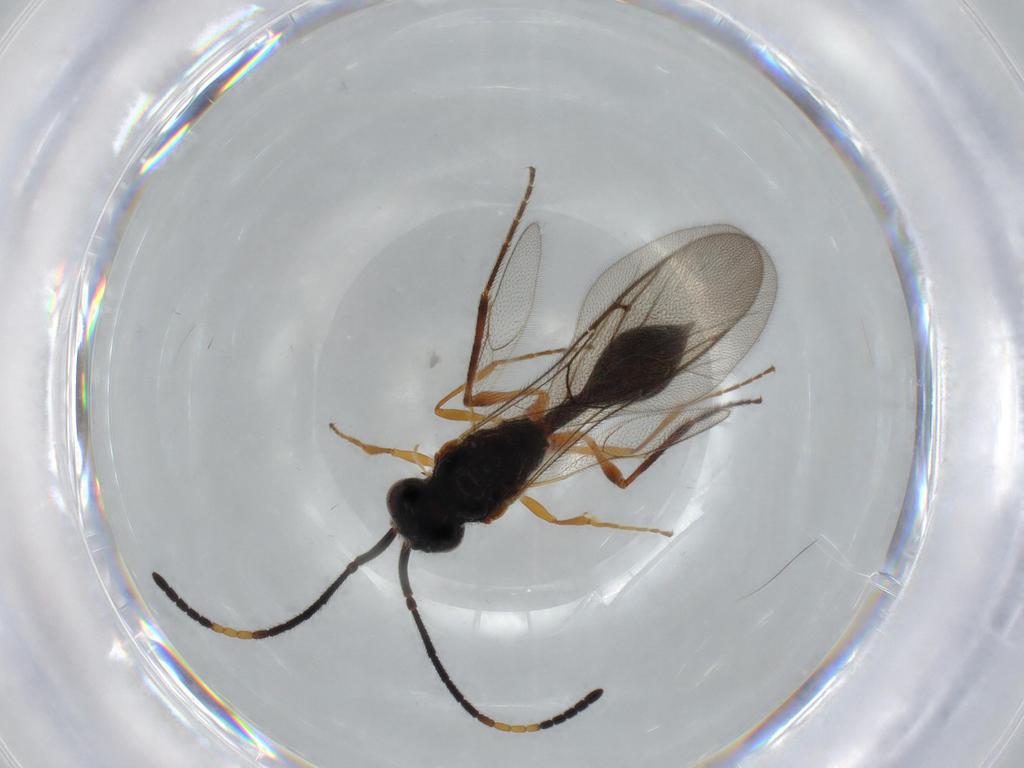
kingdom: Animalia
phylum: Arthropoda
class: Insecta
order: Hymenoptera
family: Diapriidae
